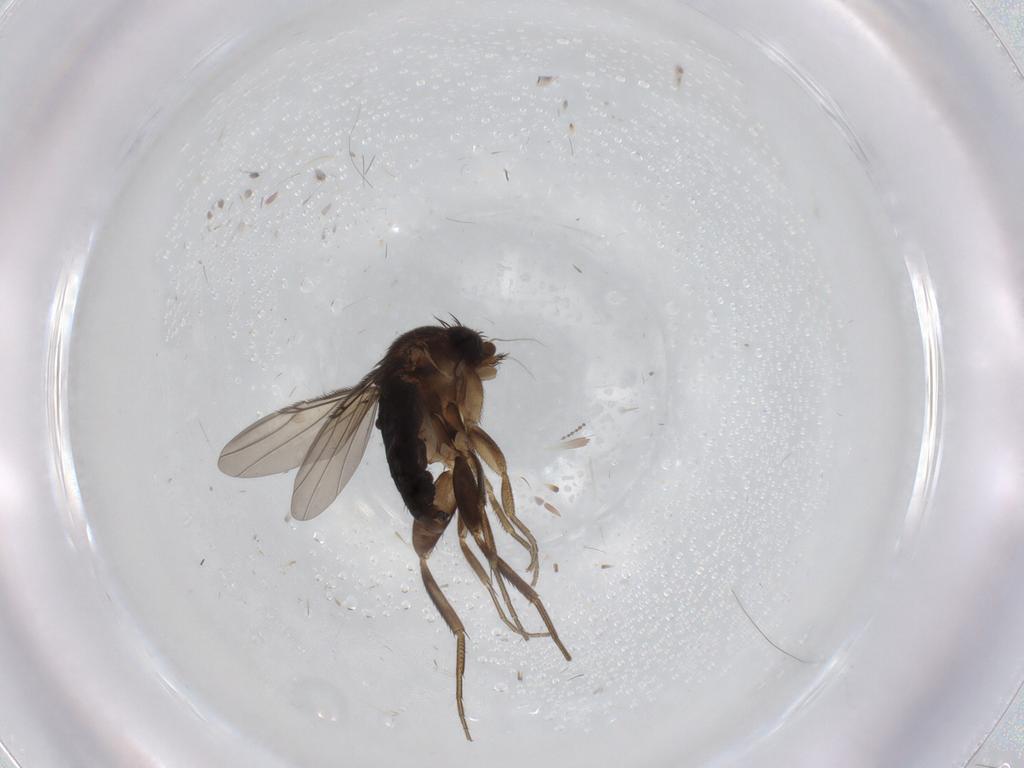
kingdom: Animalia
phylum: Arthropoda
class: Insecta
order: Diptera
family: Phoridae
